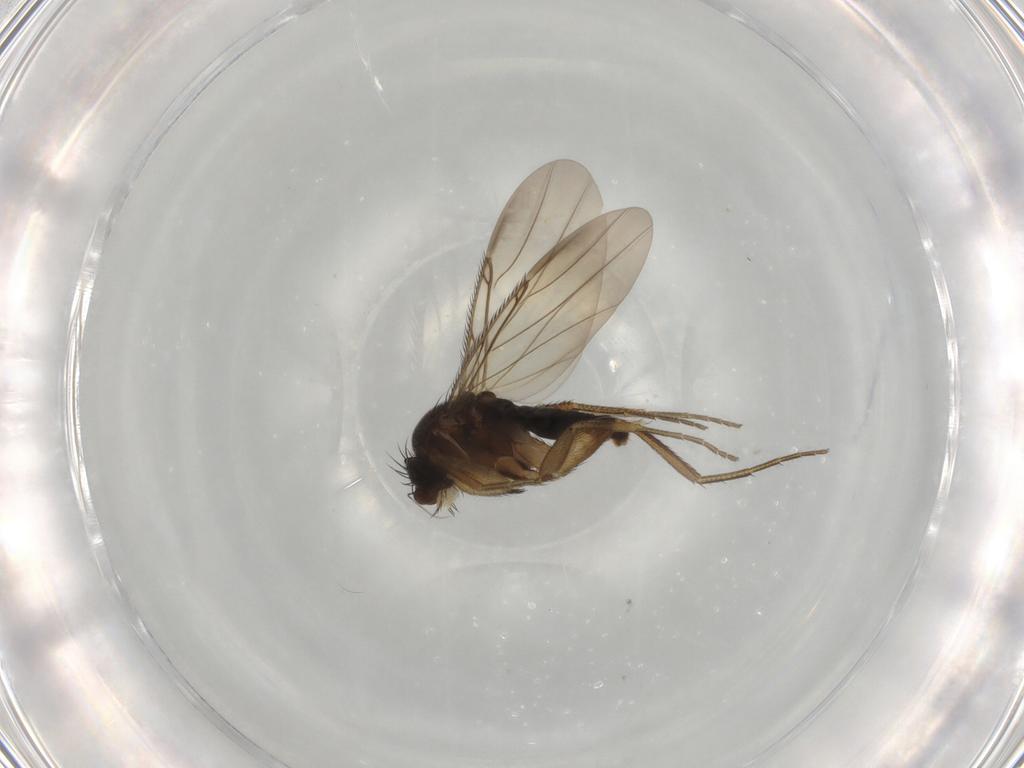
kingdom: Animalia
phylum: Arthropoda
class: Insecta
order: Diptera
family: Phoridae
